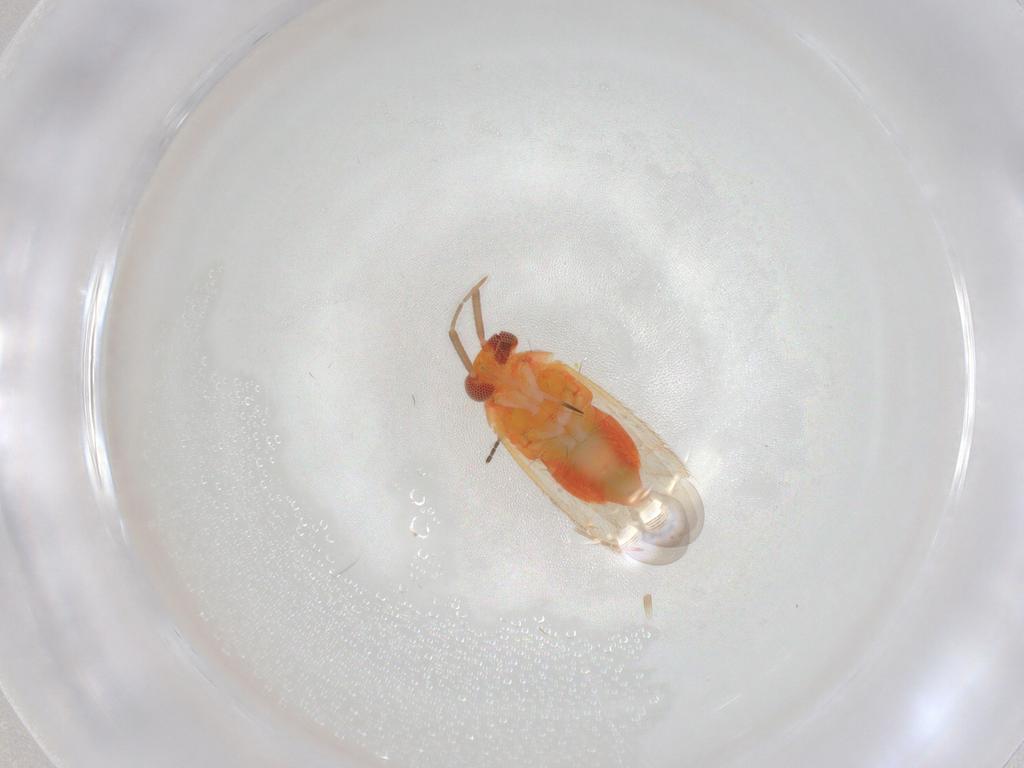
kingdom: Animalia
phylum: Arthropoda
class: Insecta
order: Hemiptera
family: Miridae
